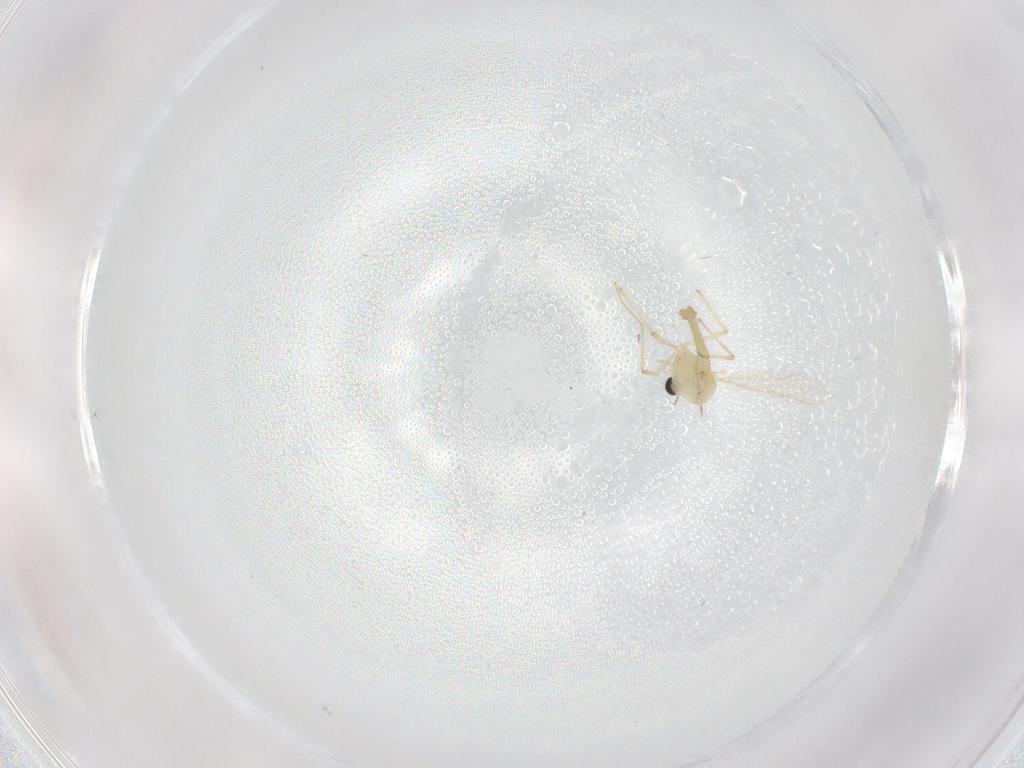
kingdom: Animalia
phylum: Arthropoda
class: Insecta
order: Diptera
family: Chironomidae
